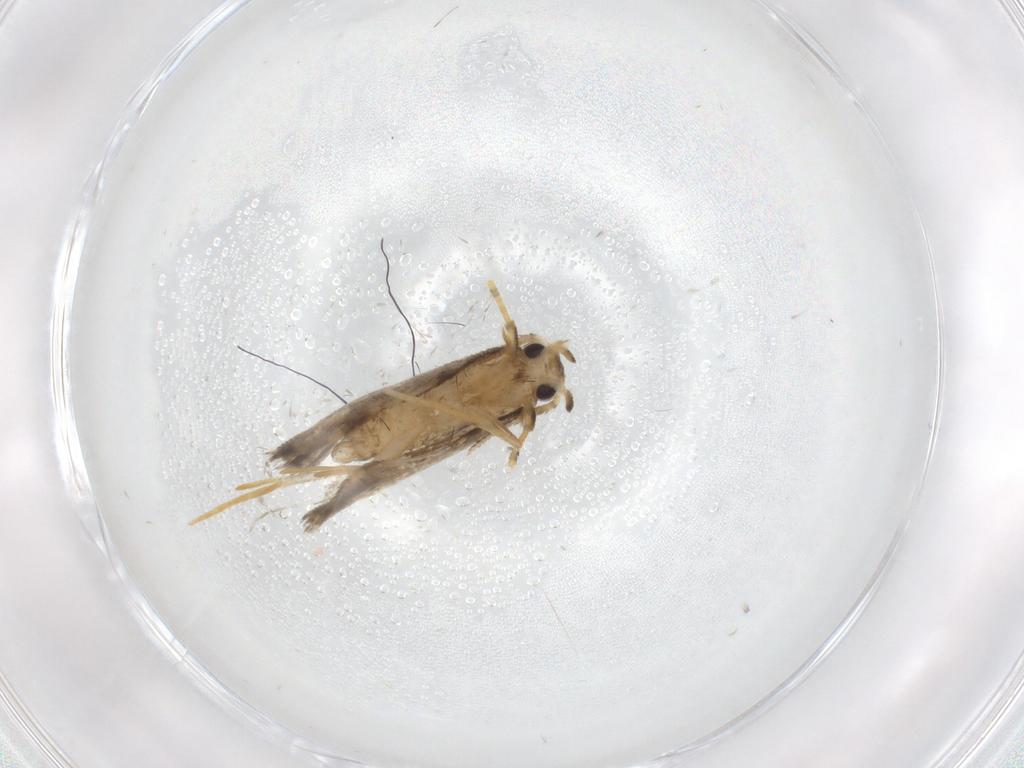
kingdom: Animalia
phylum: Arthropoda
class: Insecta
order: Lepidoptera
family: Psychidae
